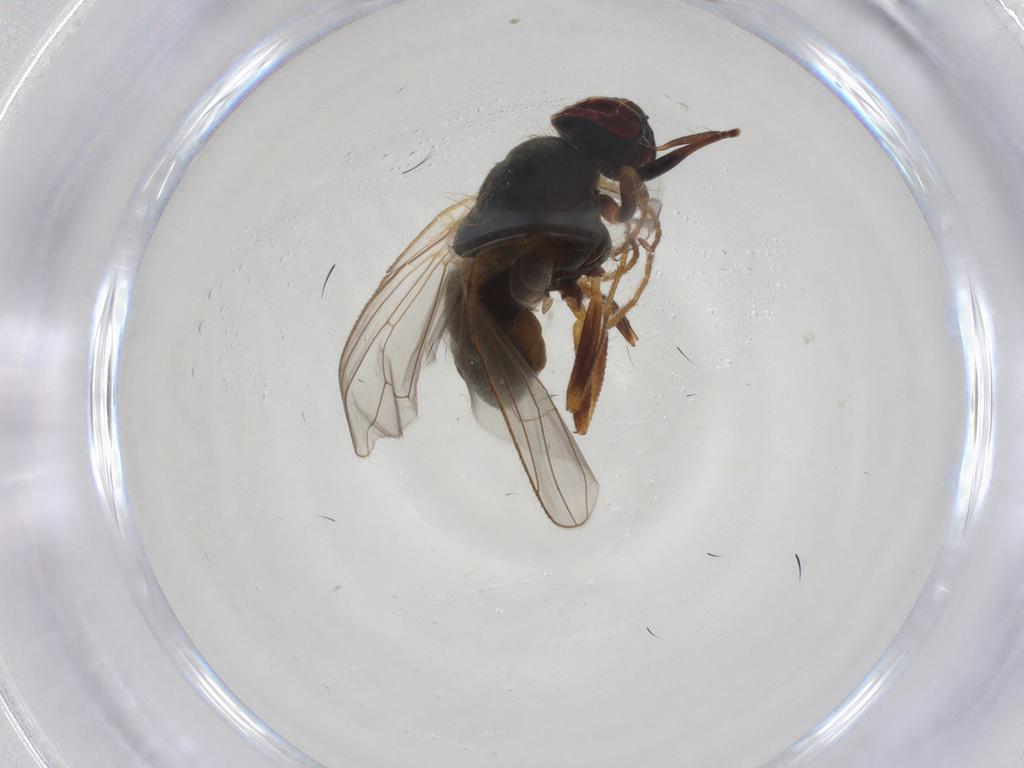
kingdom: Animalia
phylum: Arthropoda
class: Insecta
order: Diptera
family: Muscidae
